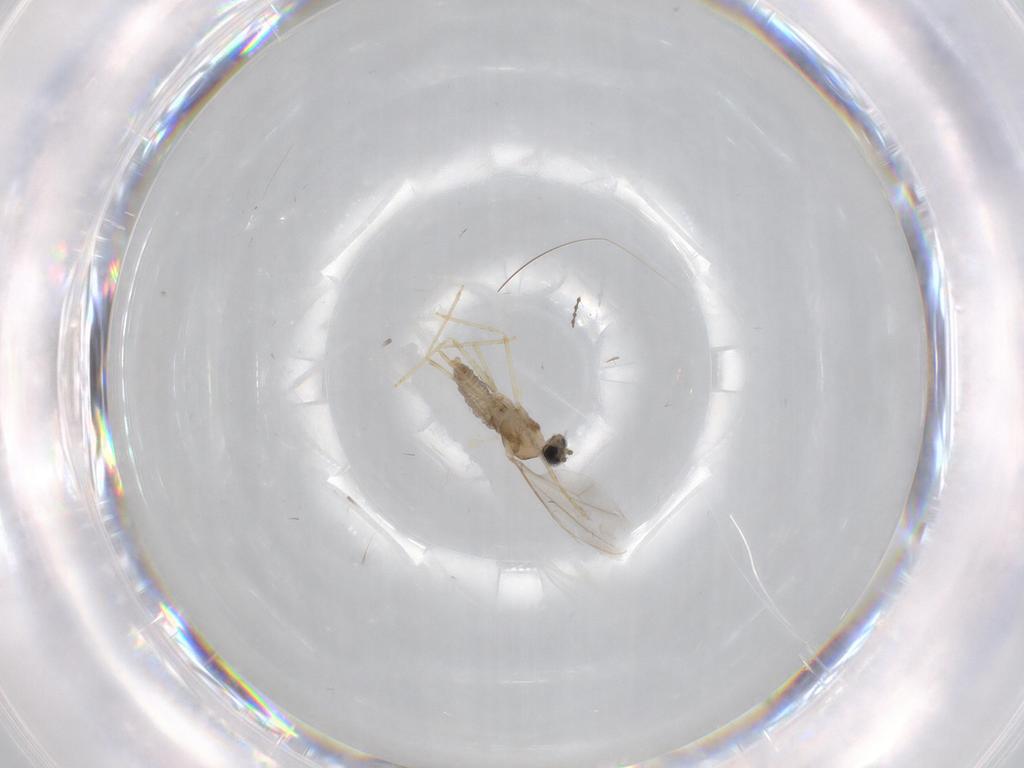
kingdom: Animalia
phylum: Arthropoda
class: Insecta
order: Diptera
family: Cecidomyiidae
